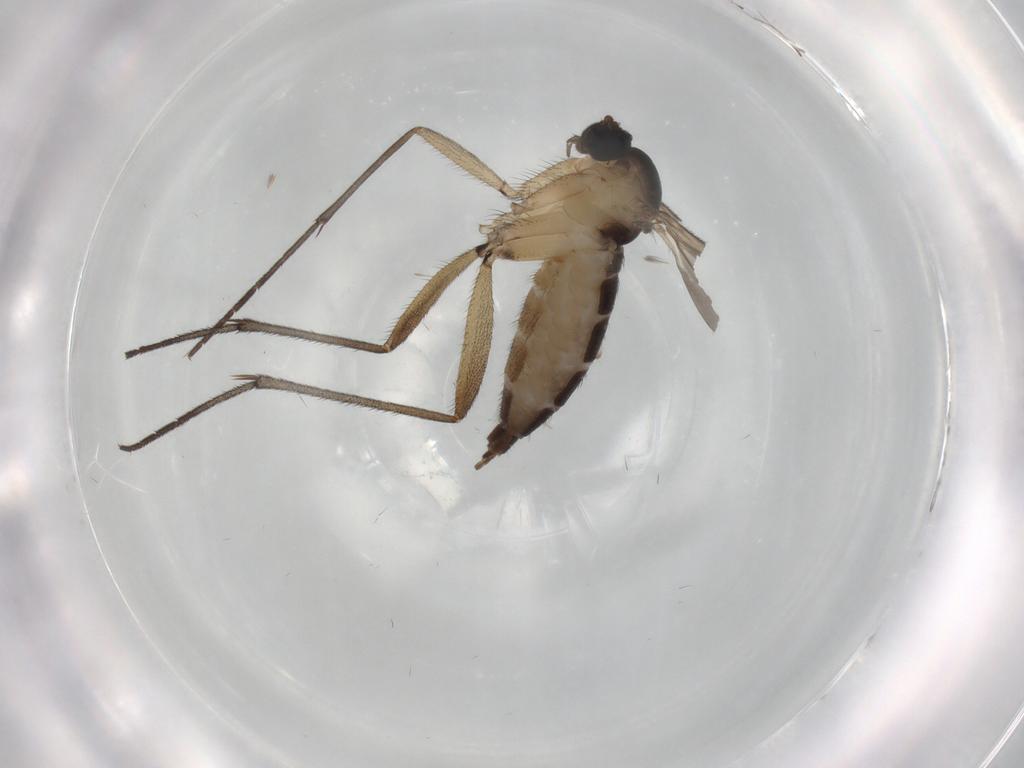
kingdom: Animalia
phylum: Arthropoda
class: Insecta
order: Diptera
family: Sciaridae
